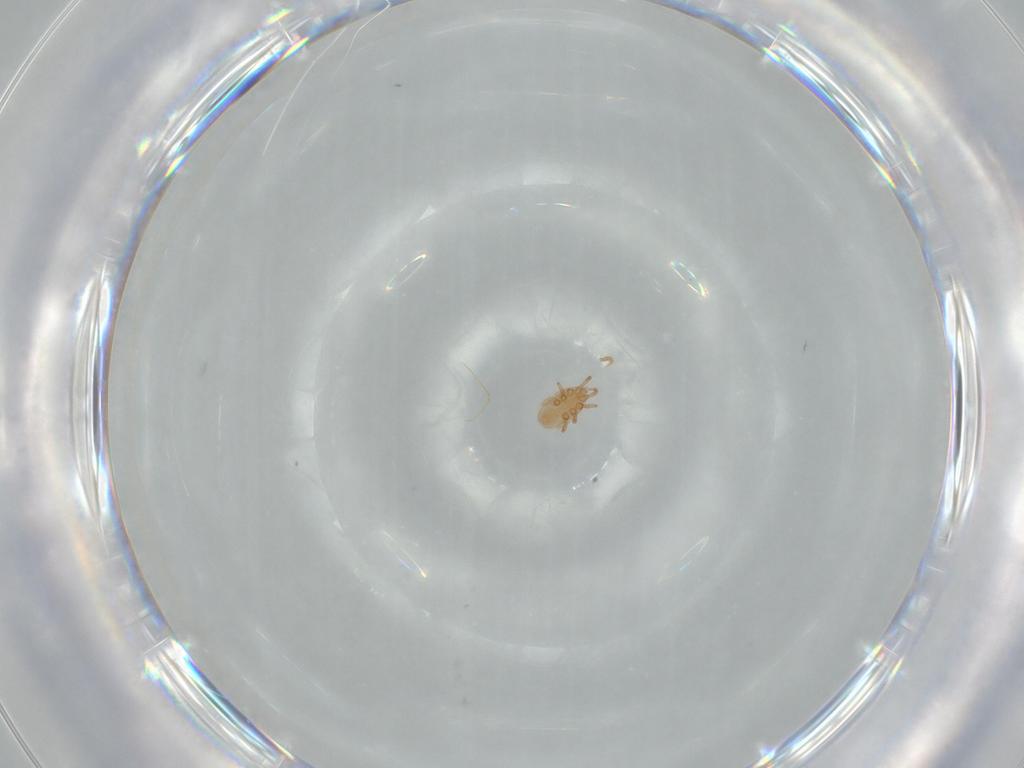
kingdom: Animalia
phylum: Arthropoda
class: Arachnida
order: Mesostigmata
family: Dinychidae
